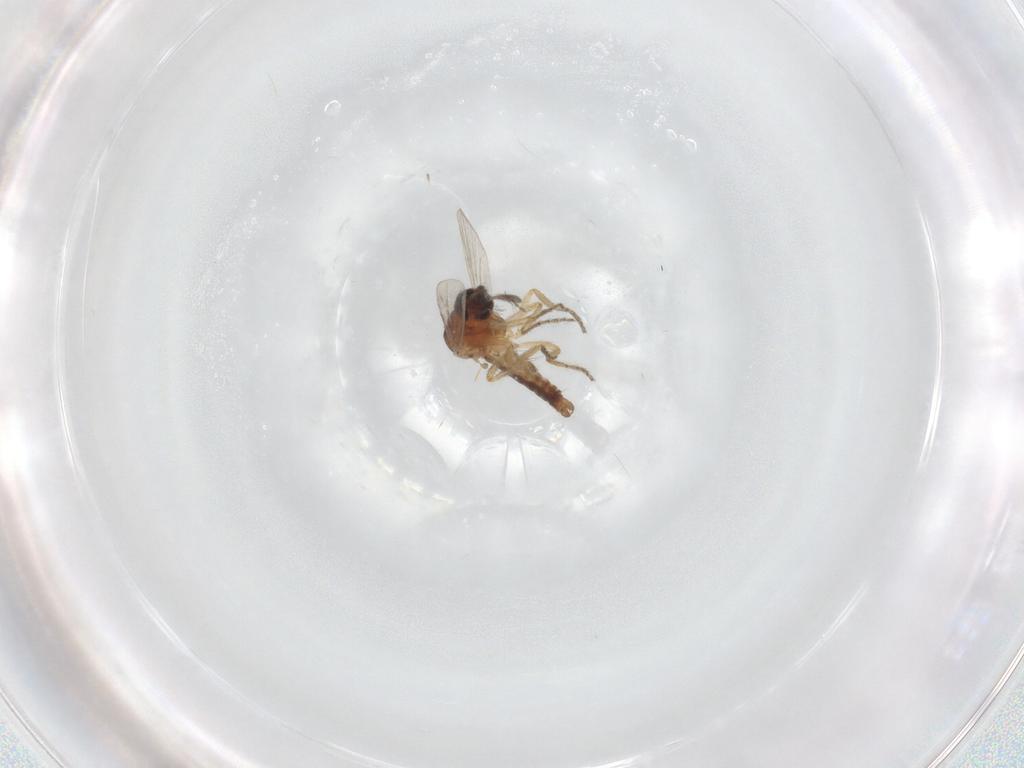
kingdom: Animalia
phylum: Arthropoda
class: Insecta
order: Diptera
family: Ceratopogonidae
